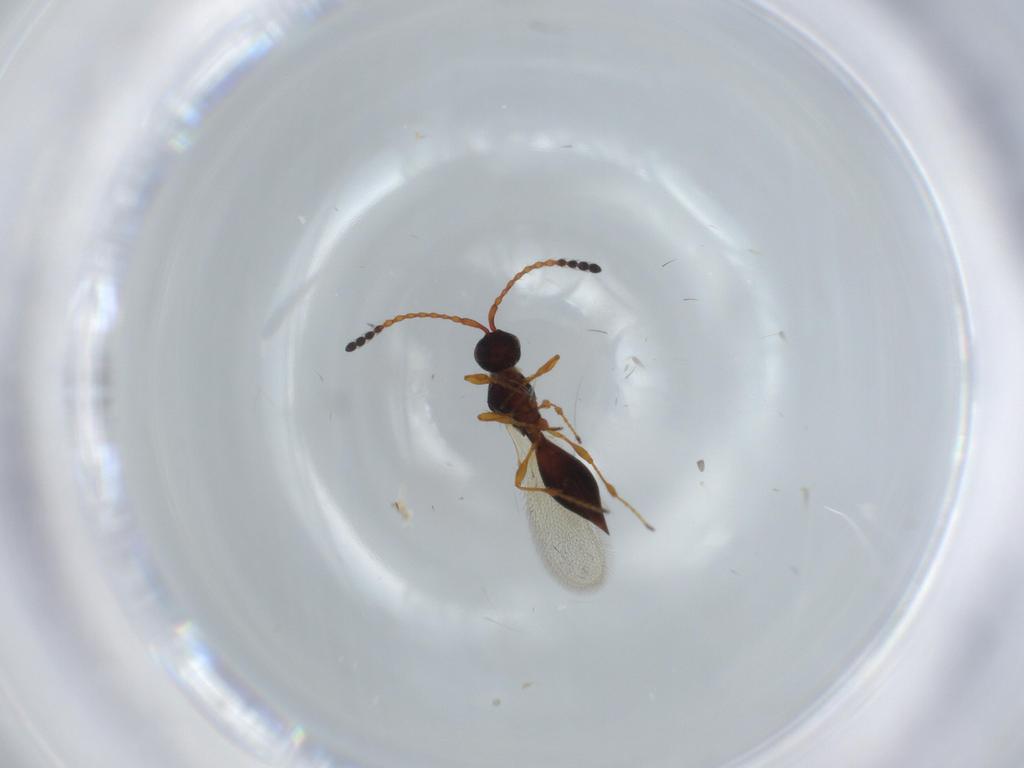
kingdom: Animalia
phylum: Arthropoda
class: Insecta
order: Hymenoptera
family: Diapriidae
